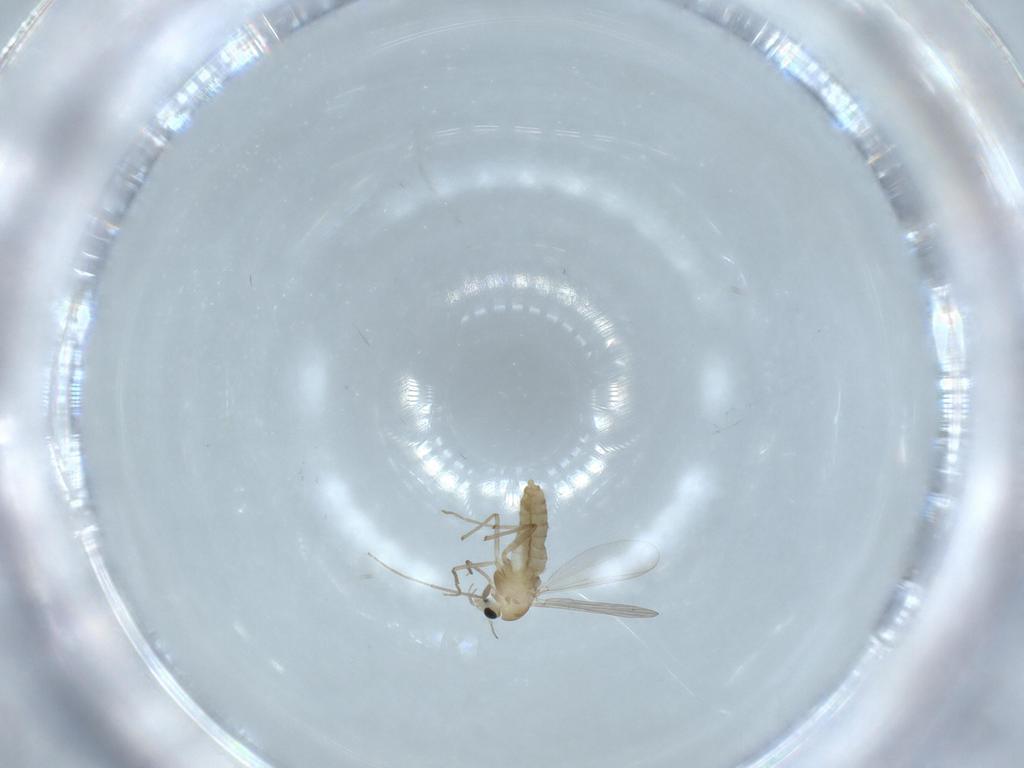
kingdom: Animalia
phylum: Arthropoda
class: Insecta
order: Diptera
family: Chironomidae
